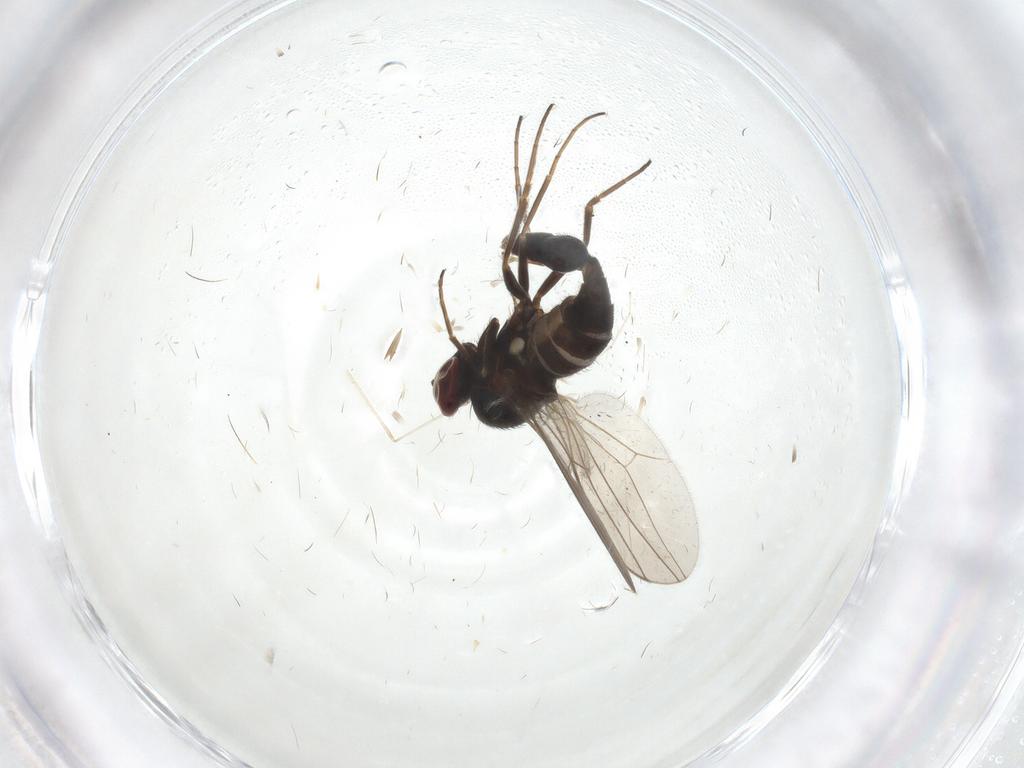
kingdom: Animalia
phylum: Arthropoda
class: Insecta
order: Diptera
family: Dolichopodidae
